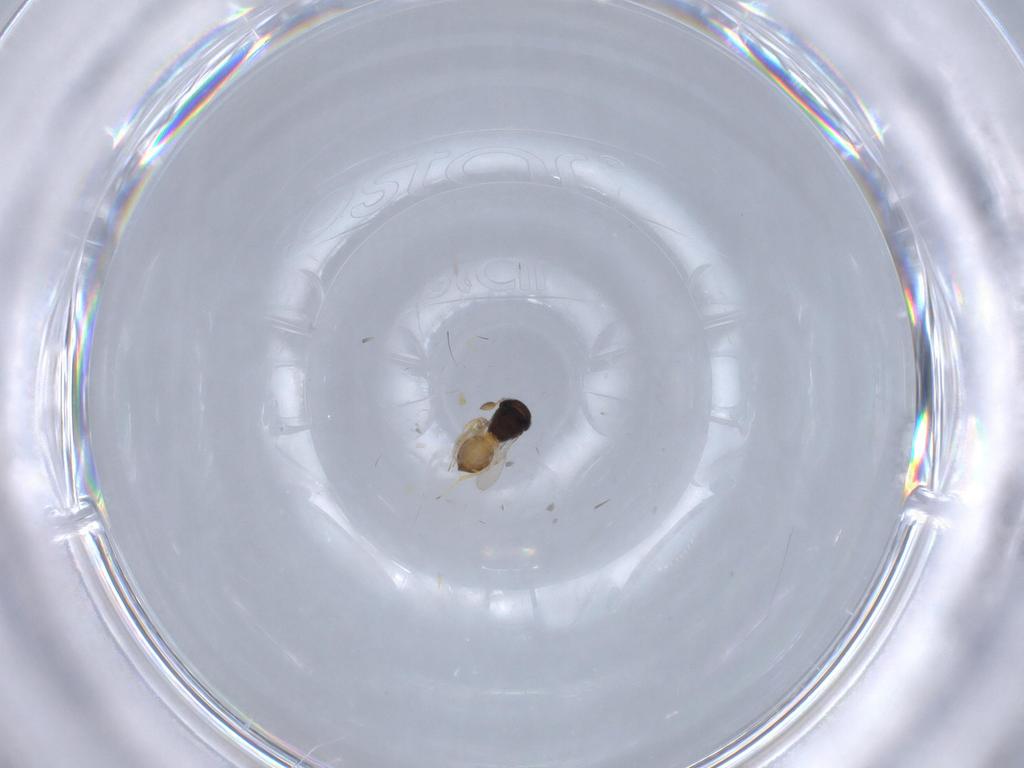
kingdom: Animalia
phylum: Arthropoda
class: Insecta
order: Hymenoptera
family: Scelionidae
